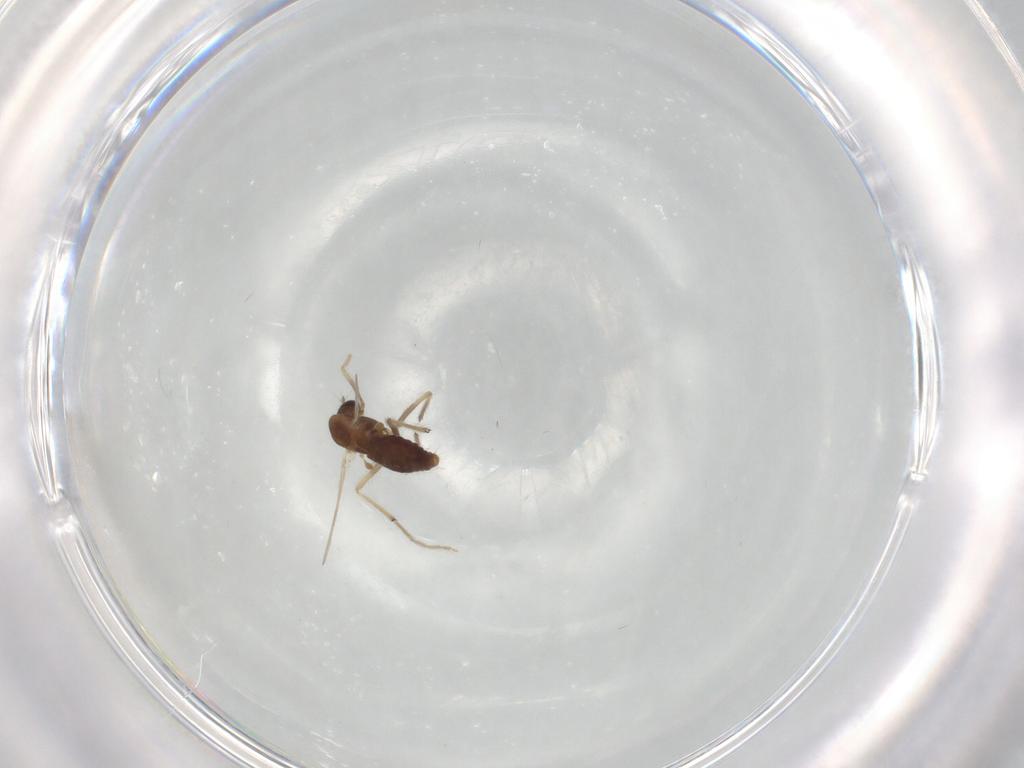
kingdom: Animalia
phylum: Arthropoda
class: Insecta
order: Diptera
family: Chironomidae
